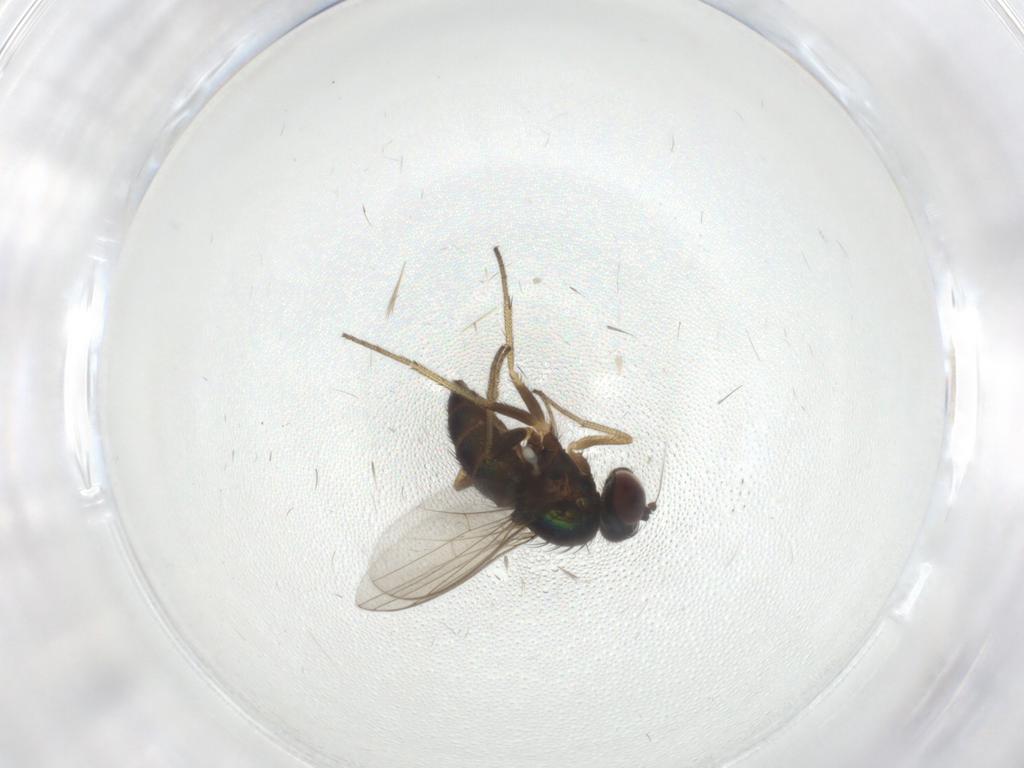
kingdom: Animalia
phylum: Arthropoda
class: Insecta
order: Diptera
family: Dolichopodidae
